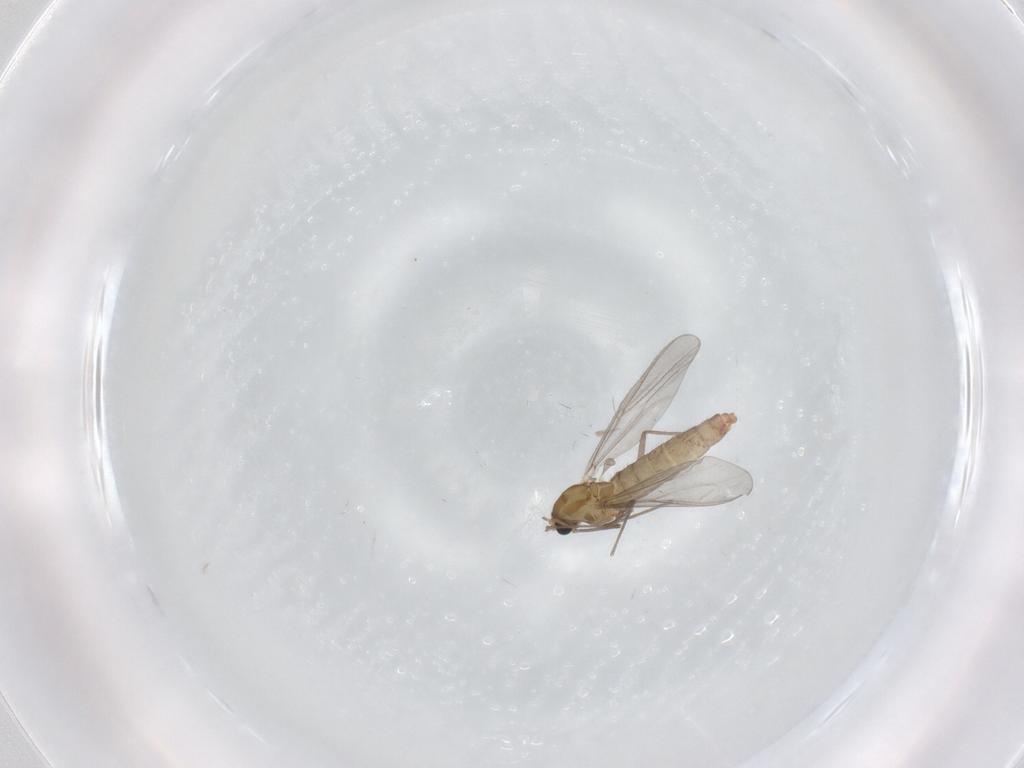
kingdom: Animalia
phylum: Arthropoda
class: Insecta
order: Diptera
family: Chironomidae
